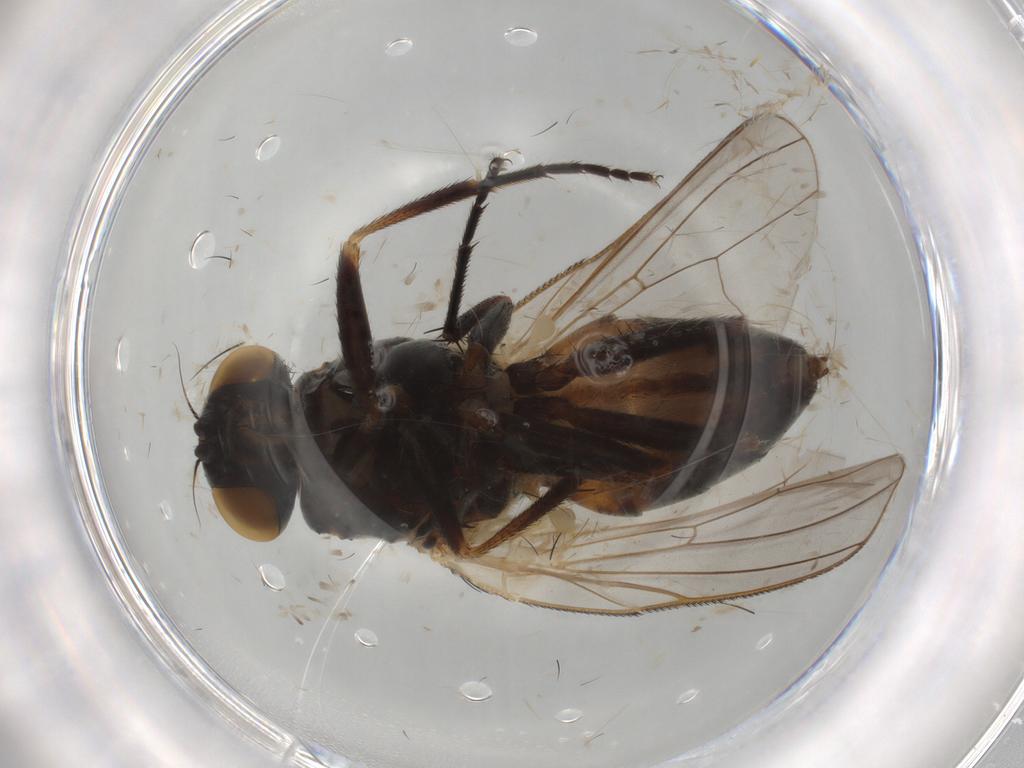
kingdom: Animalia
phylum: Arthropoda
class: Insecta
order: Diptera
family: Fannia
